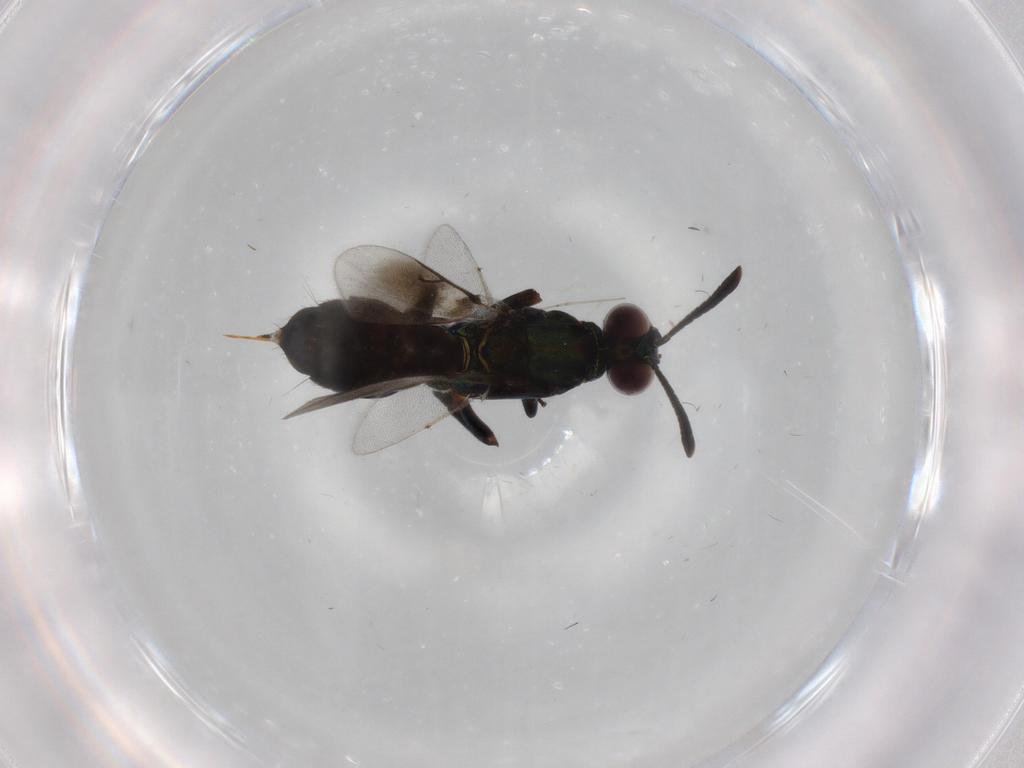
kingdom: Animalia
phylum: Arthropoda
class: Insecta
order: Hymenoptera
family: Eupelmidae
